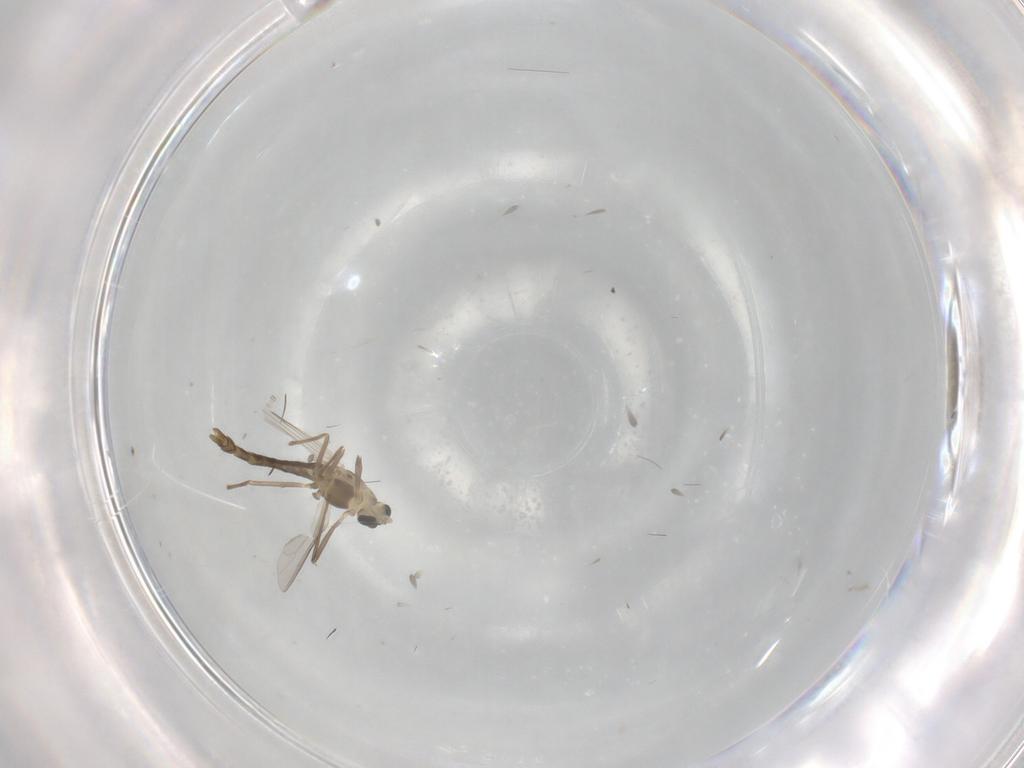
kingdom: Animalia
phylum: Arthropoda
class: Insecta
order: Diptera
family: Chironomidae
